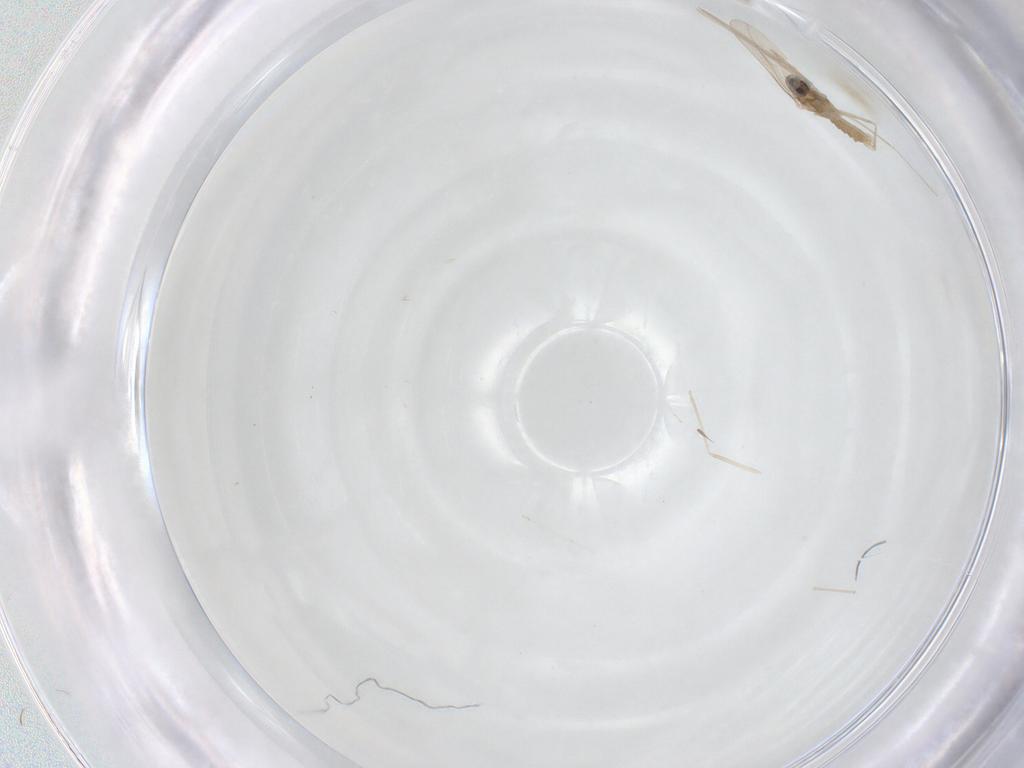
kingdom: Animalia
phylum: Arthropoda
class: Insecta
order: Diptera
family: Cecidomyiidae
